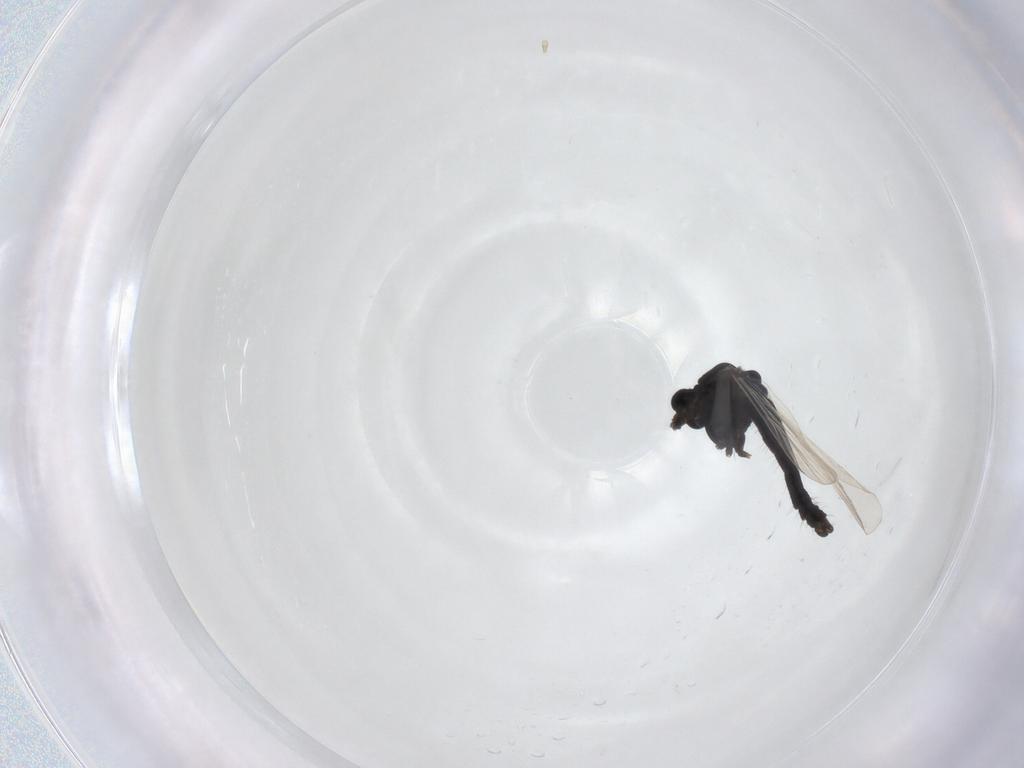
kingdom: Animalia
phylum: Arthropoda
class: Insecta
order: Diptera
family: Chironomidae
